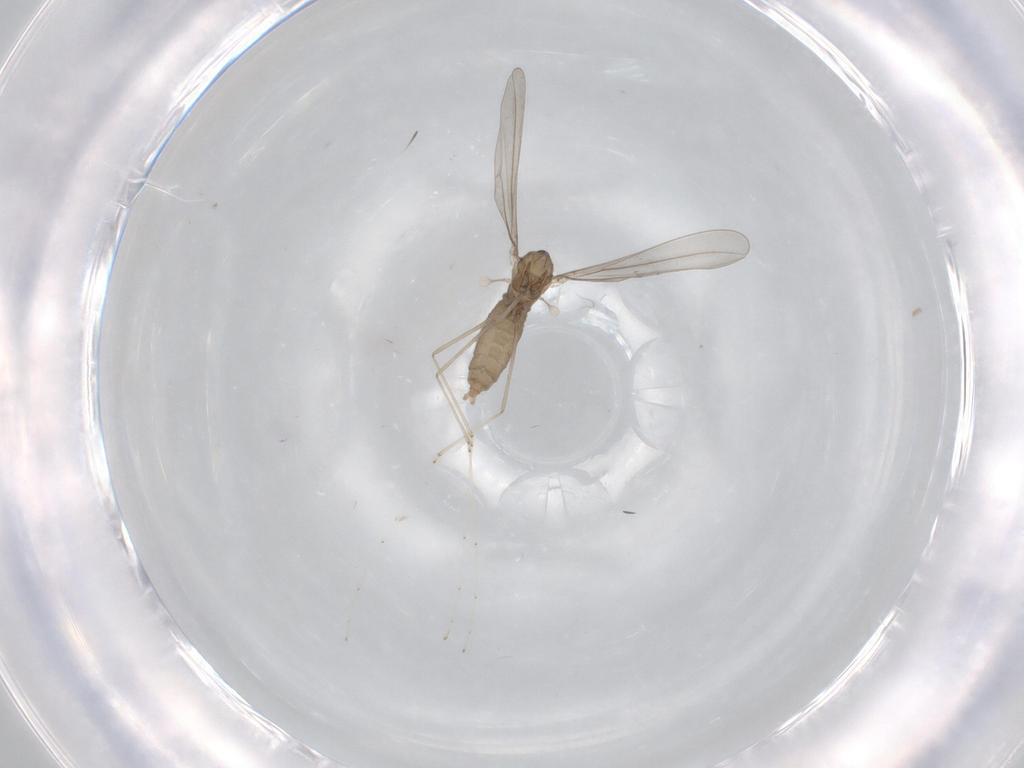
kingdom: Animalia
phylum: Arthropoda
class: Insecta
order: Diptera
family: Cecidomyiidae
